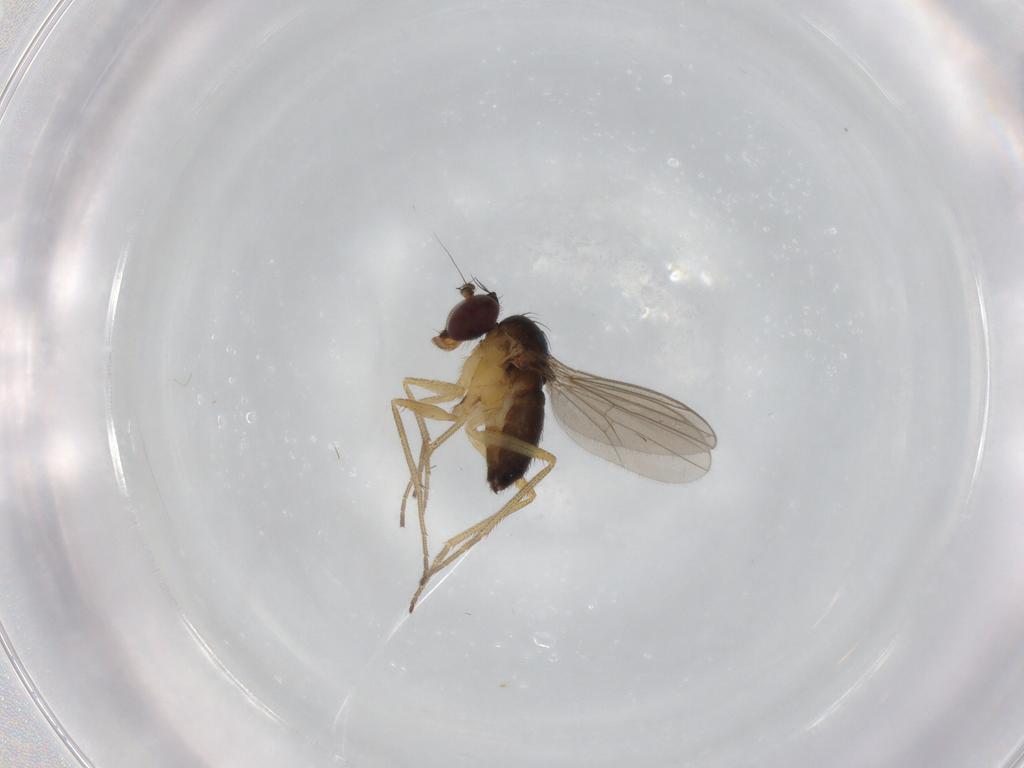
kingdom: Animalia
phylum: Arthropoda
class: Insecta
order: Diptera
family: Dolichopodidae
